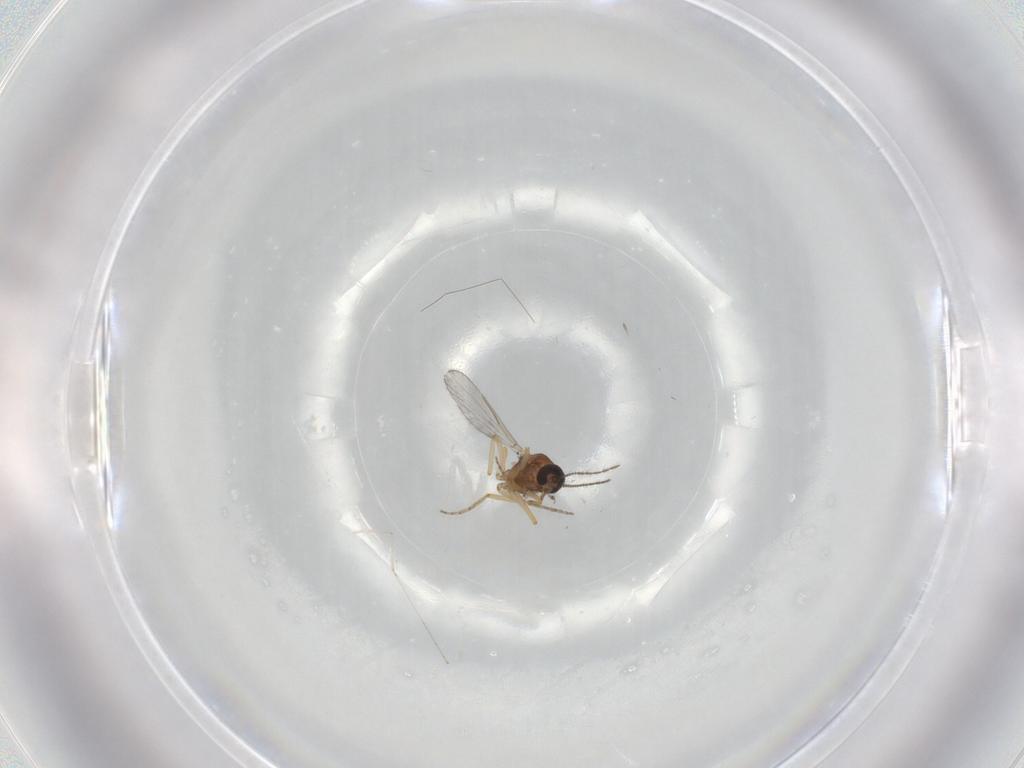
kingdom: Animalia
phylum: Arthropoda
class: Insecta
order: Diptera
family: Ceratopogonidae
